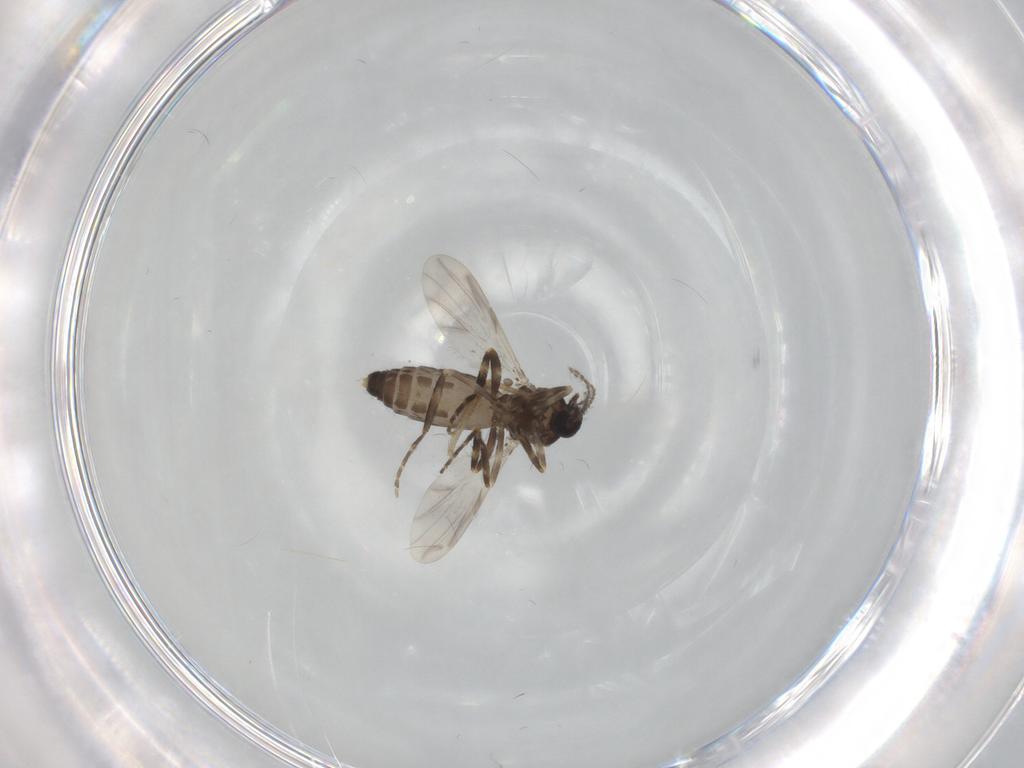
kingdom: Animalia
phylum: Arthropoda
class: Insecta
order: Diptera
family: Ceratopogonidae
